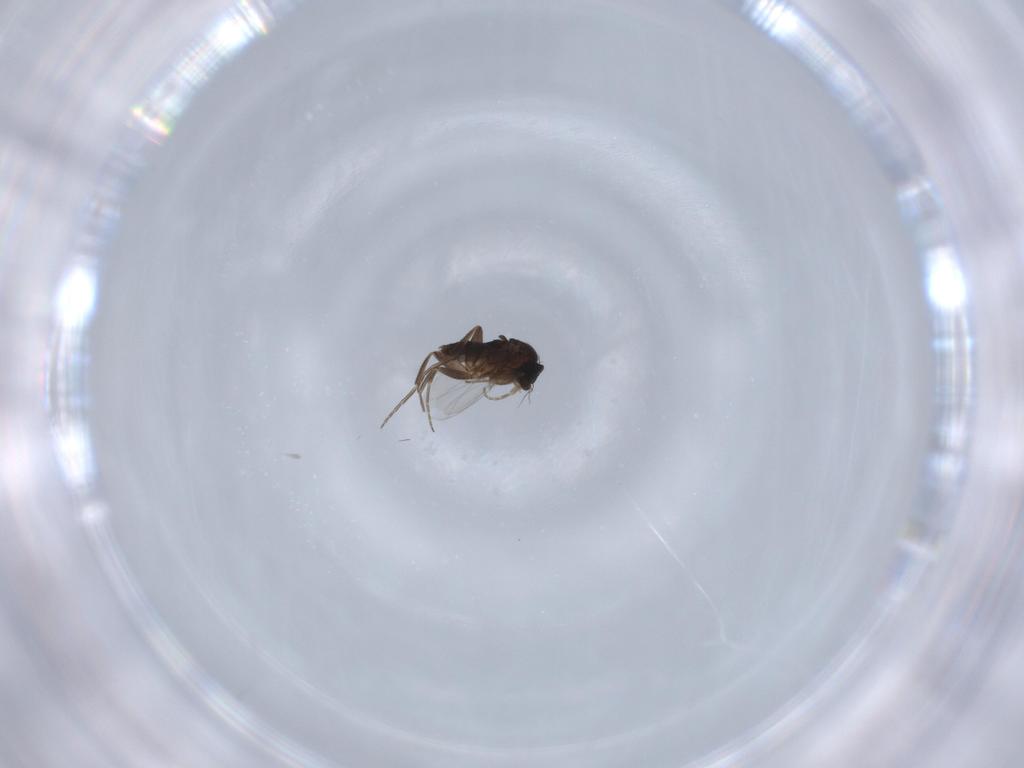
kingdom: Animalia
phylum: Arthropoda
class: Insecta
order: Diptera
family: Phoridae
